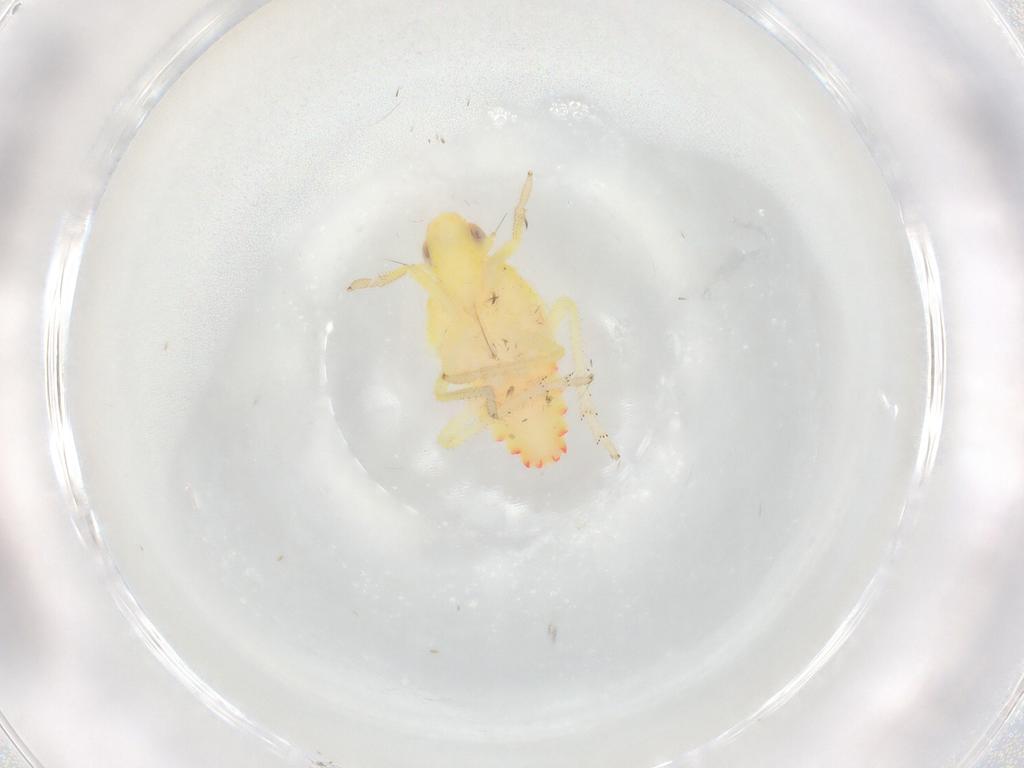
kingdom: Animalia
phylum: Arthropoda
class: Insecta
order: Hemiptera
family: Tropiduchidae
